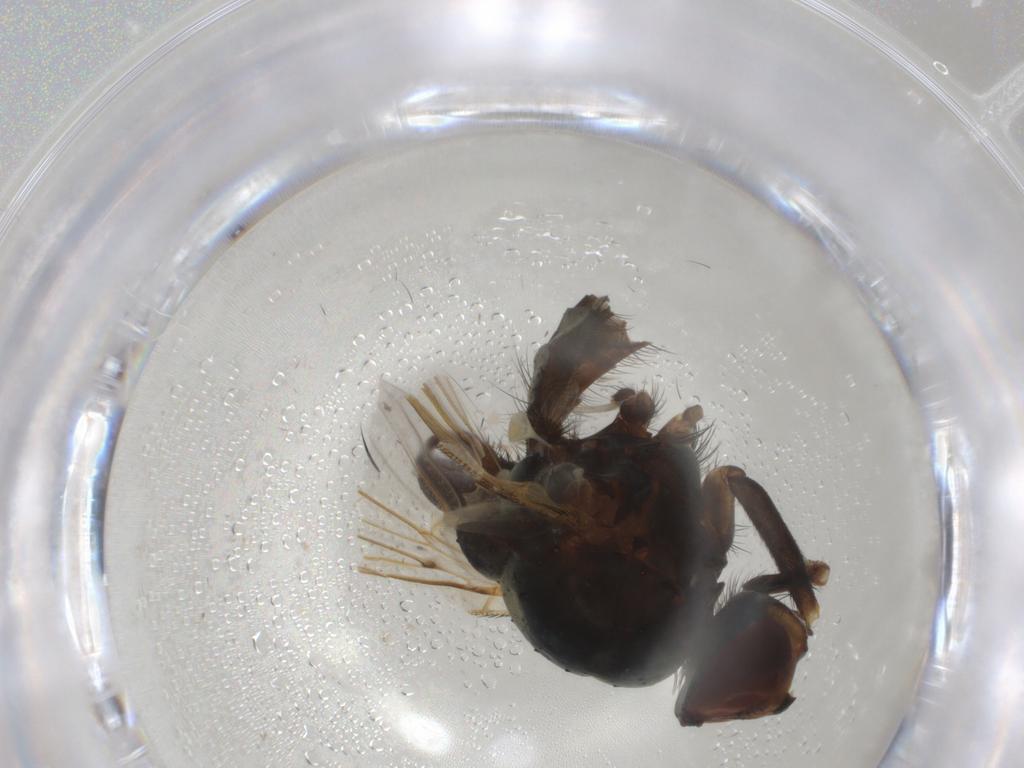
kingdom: Animalia
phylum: Arthropoda
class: Insecta
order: Diptera
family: Anthomyiidae
